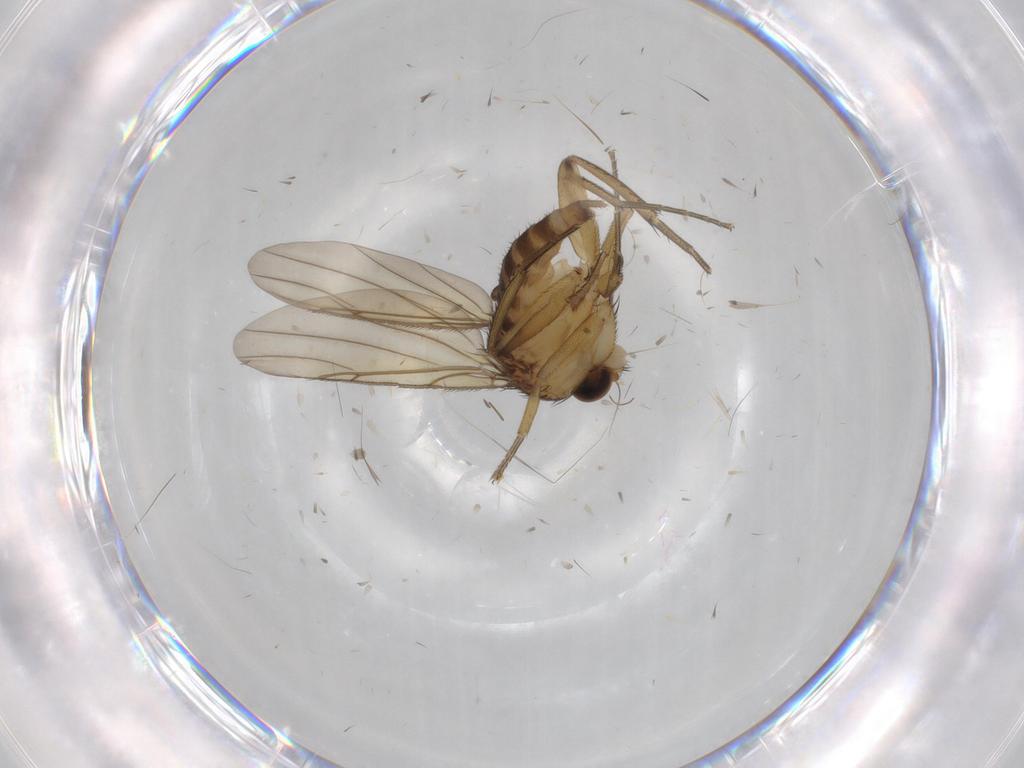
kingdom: Animalia
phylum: Arthropoda
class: Insecta
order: Diptera
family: Phoridae
